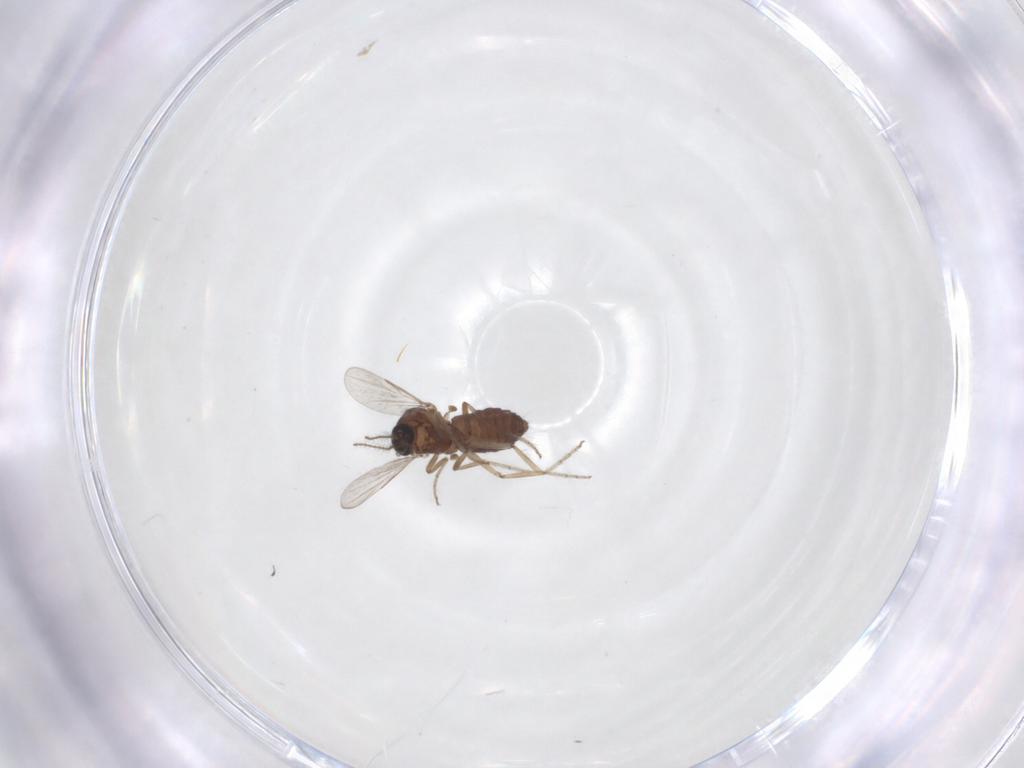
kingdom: Animalia
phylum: Arthropoda
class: Insecta
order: Diptera
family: Ceratopogonidae
